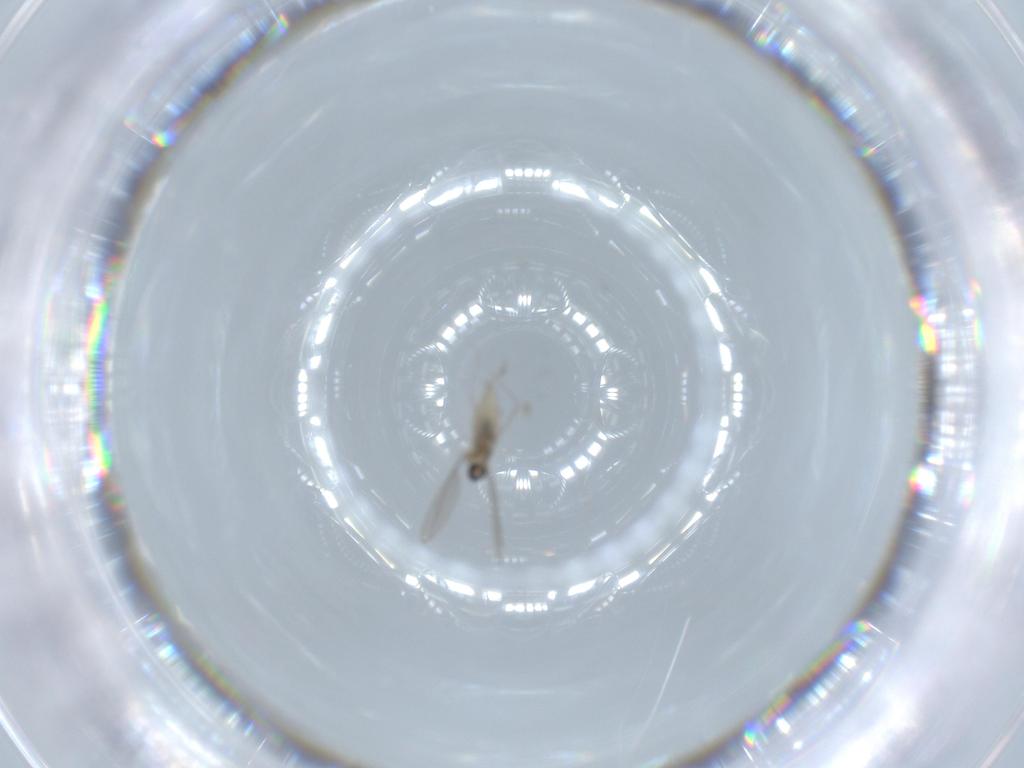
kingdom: Animalia
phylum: Arthropoda
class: Insecta
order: Diptera
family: Cecidomyiidae
